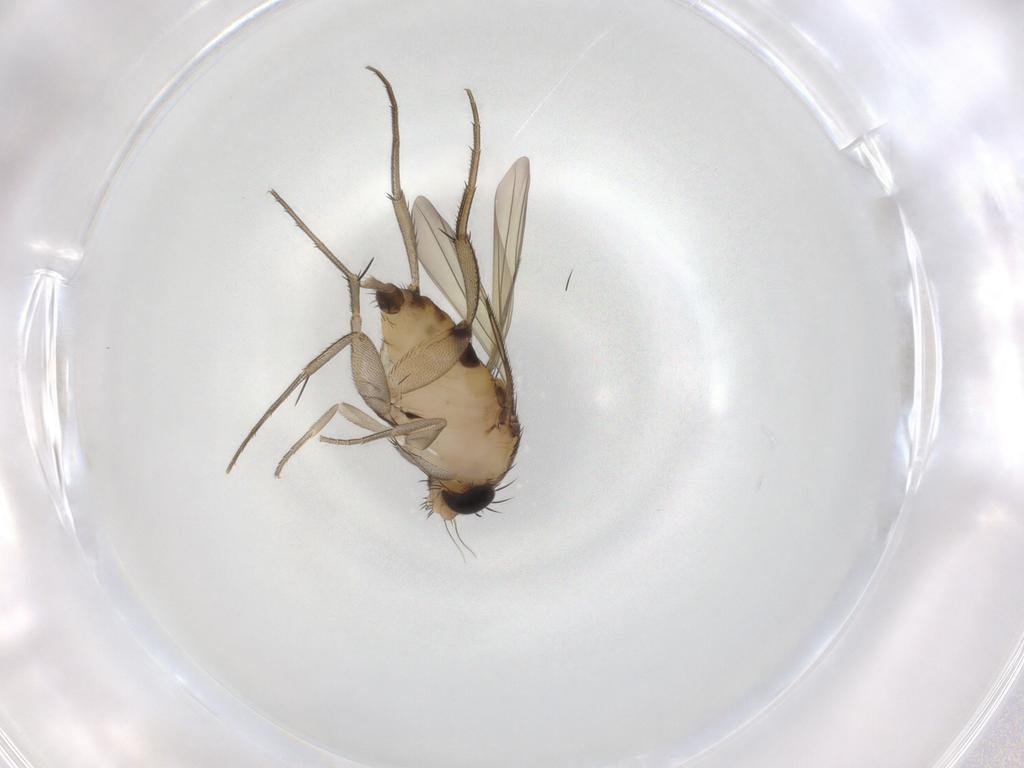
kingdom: Animalia
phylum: Arthropoda
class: Insecta
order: Diptera
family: Phoridae
